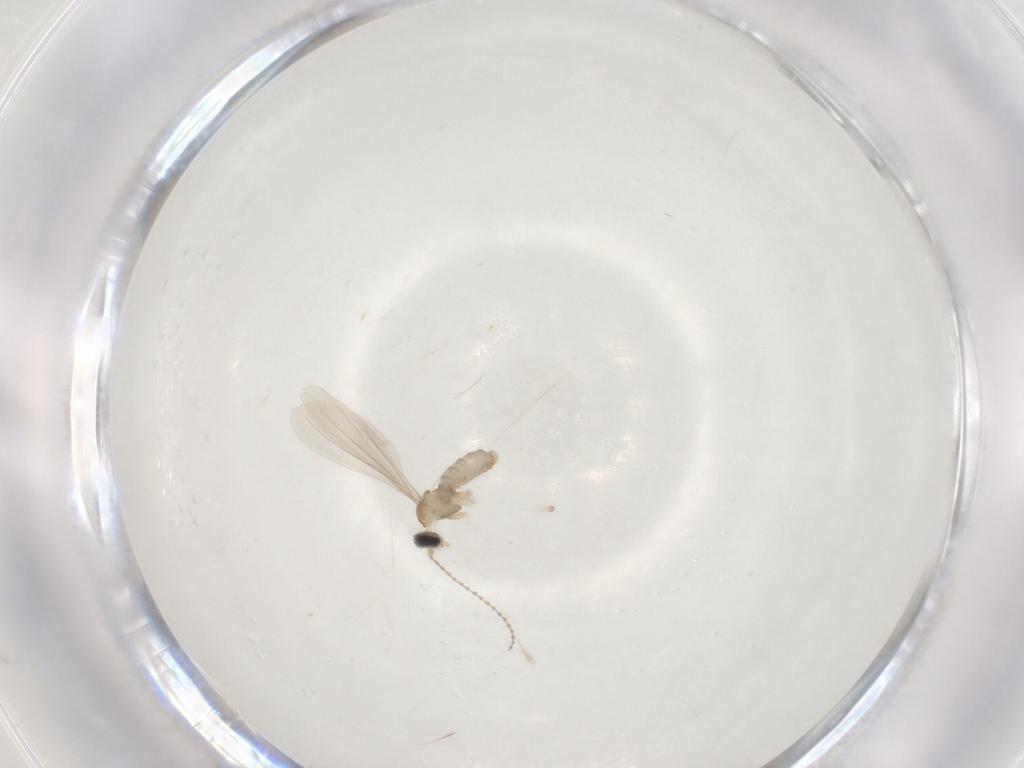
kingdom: Animalia
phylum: Arthropoda
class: Insecta
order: Diptera
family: Cecidomyiidae
